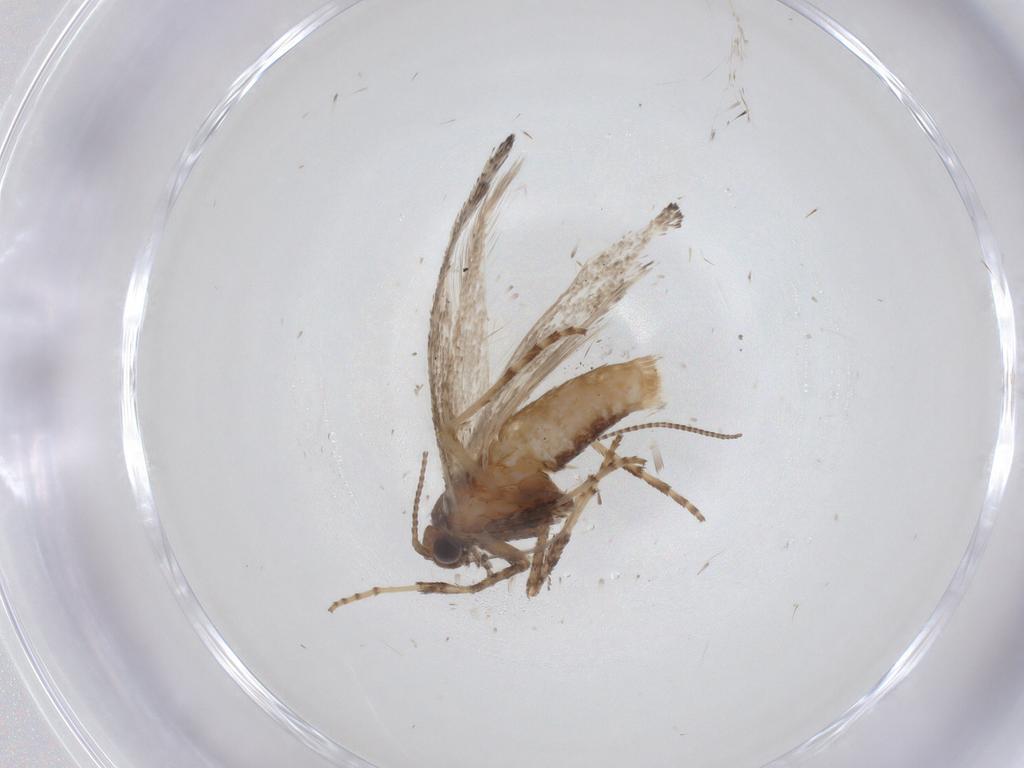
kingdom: Animalia
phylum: Arthropoda
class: Insecta
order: Lepidoptera
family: Gracillariidae
